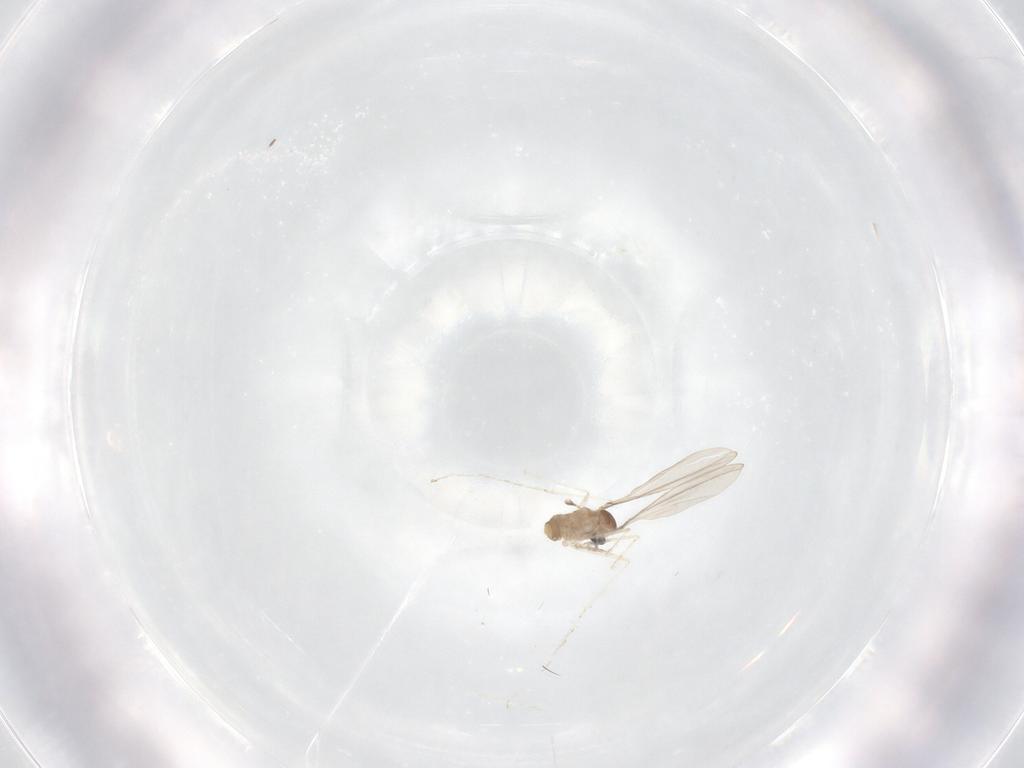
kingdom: Animalia
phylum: Arthropoda
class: Insecta
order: Diptera
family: Cecidomyiidae
